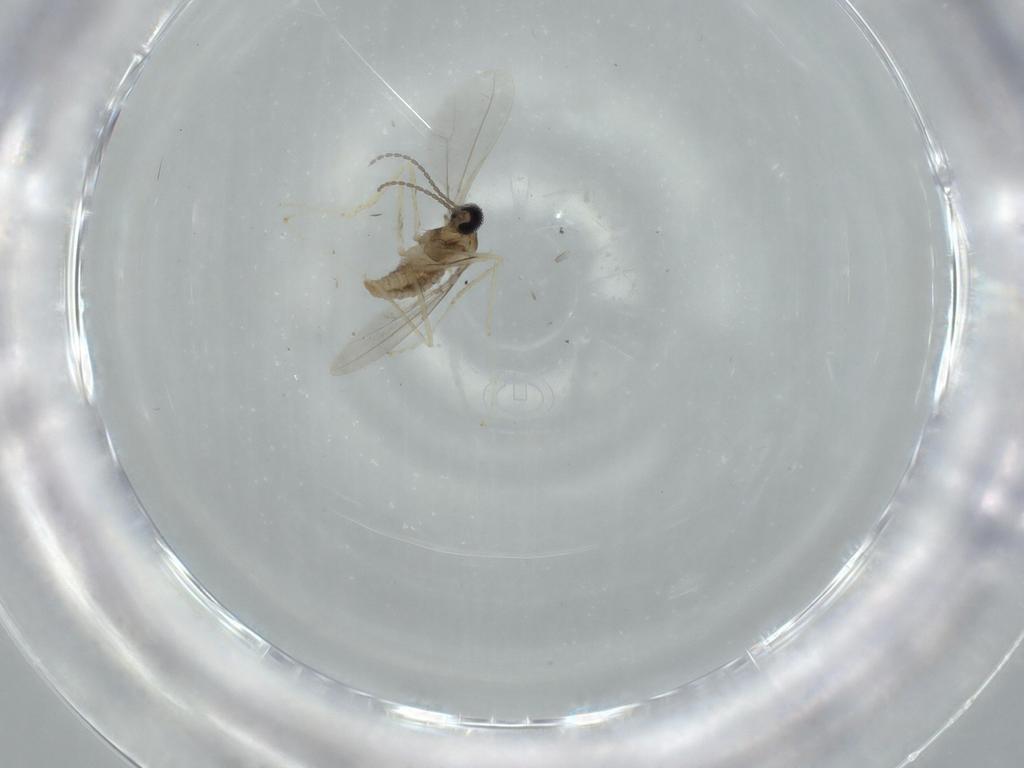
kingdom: Animalia
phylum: Arthropoda
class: Insecta
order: Diptera
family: Cecidomyiidae
